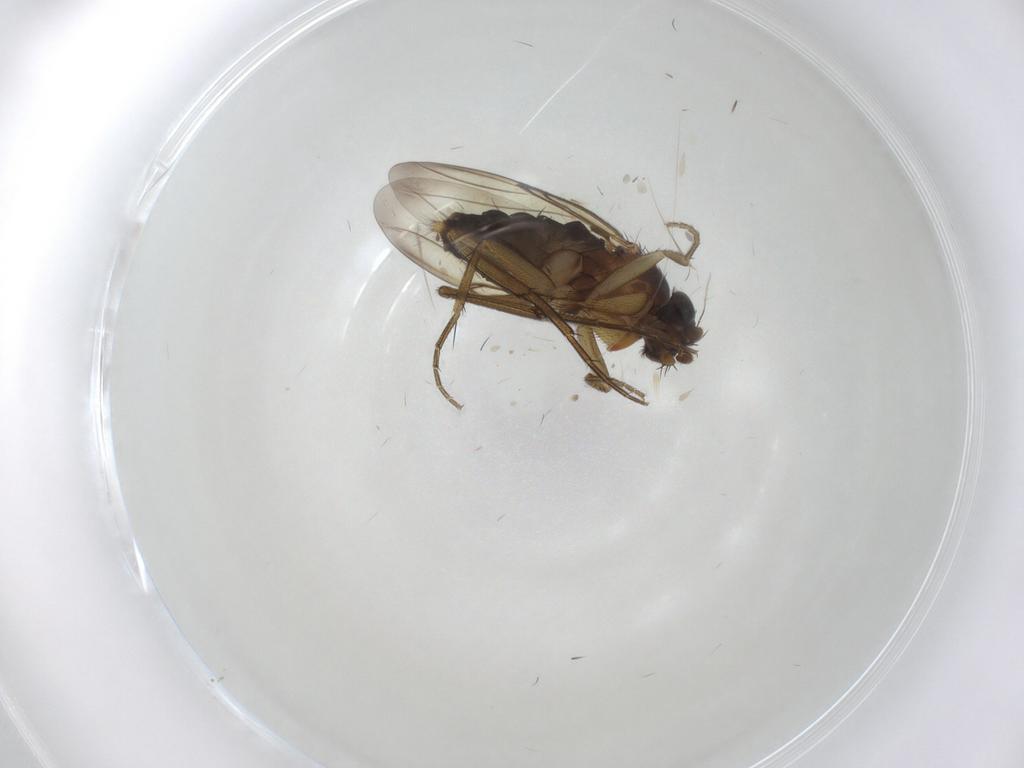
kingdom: Animalia
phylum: Arthropoda
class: Insecta
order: Diptera
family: Phoridae
